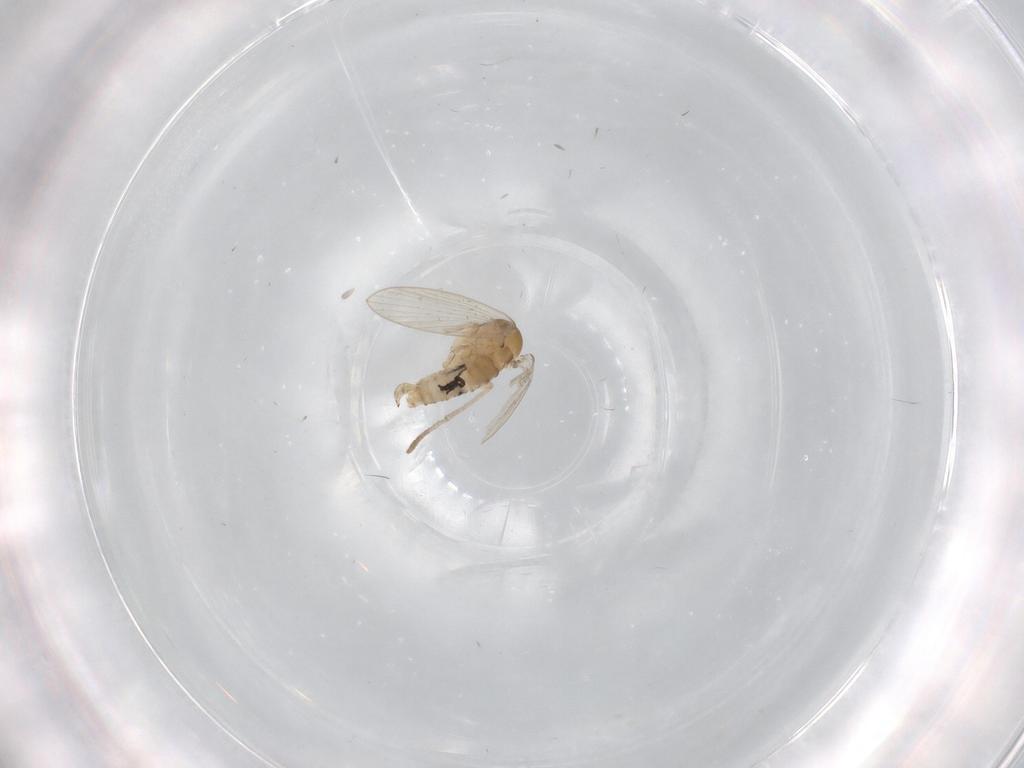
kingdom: Animalia
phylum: Arthropoda
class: Insecta
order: Diptera
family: Psychodidae
